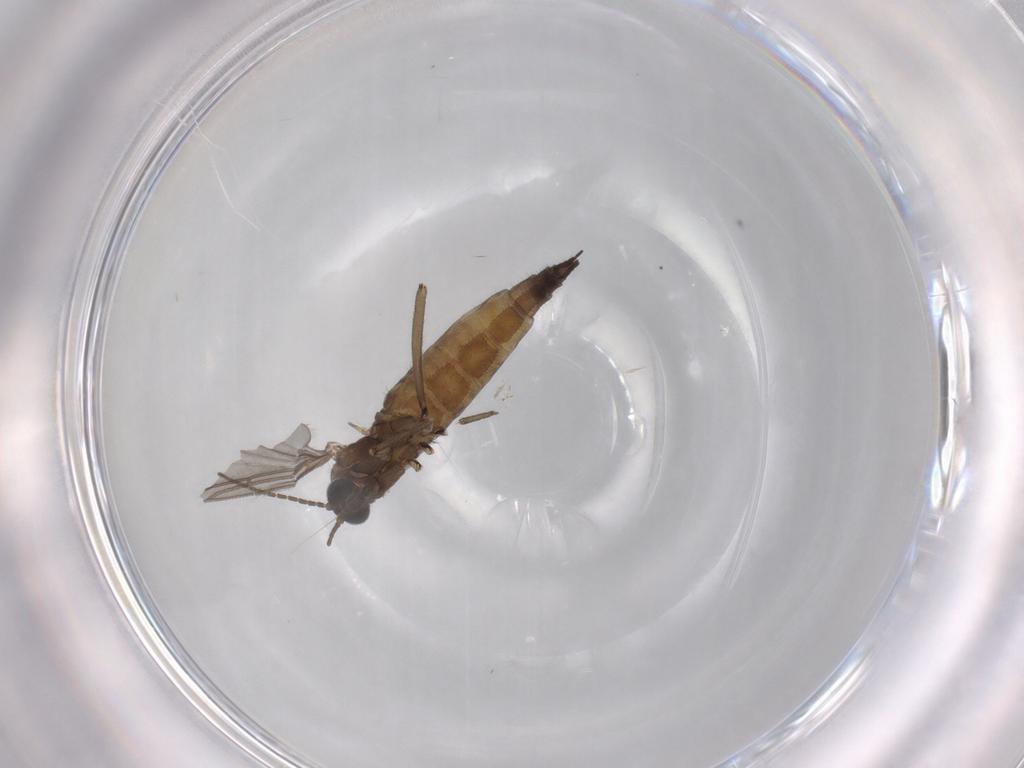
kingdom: Animalia
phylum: Arthropoda
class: Insecta
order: Diptera
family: Sciaridae
